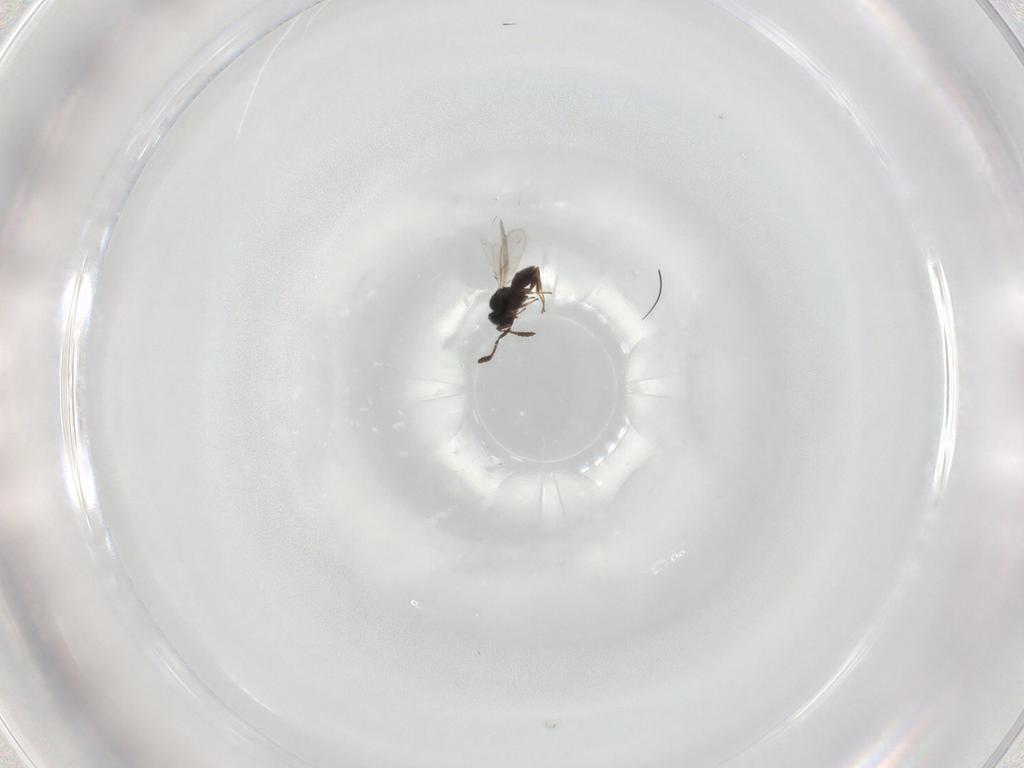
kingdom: Animalia
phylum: Arthropoda
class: Insecta
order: Hymenoptera
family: Scelionidae
